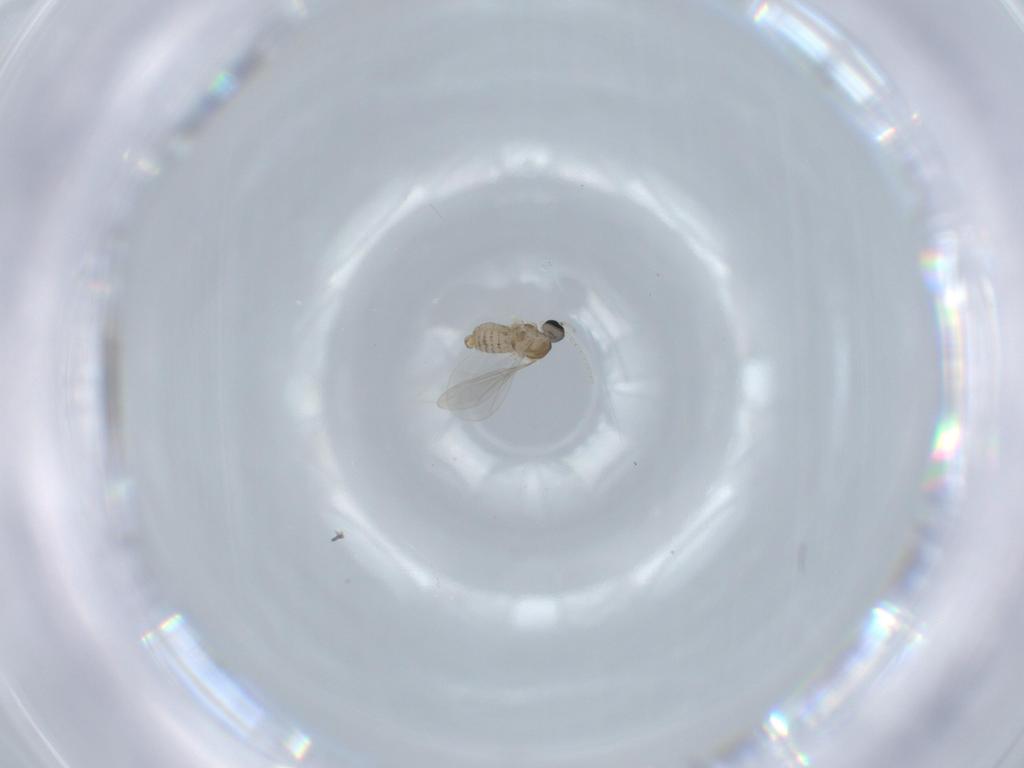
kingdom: Animalia
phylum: Arthropoda
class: Insecta
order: Diptera
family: Cecidomyiidae
